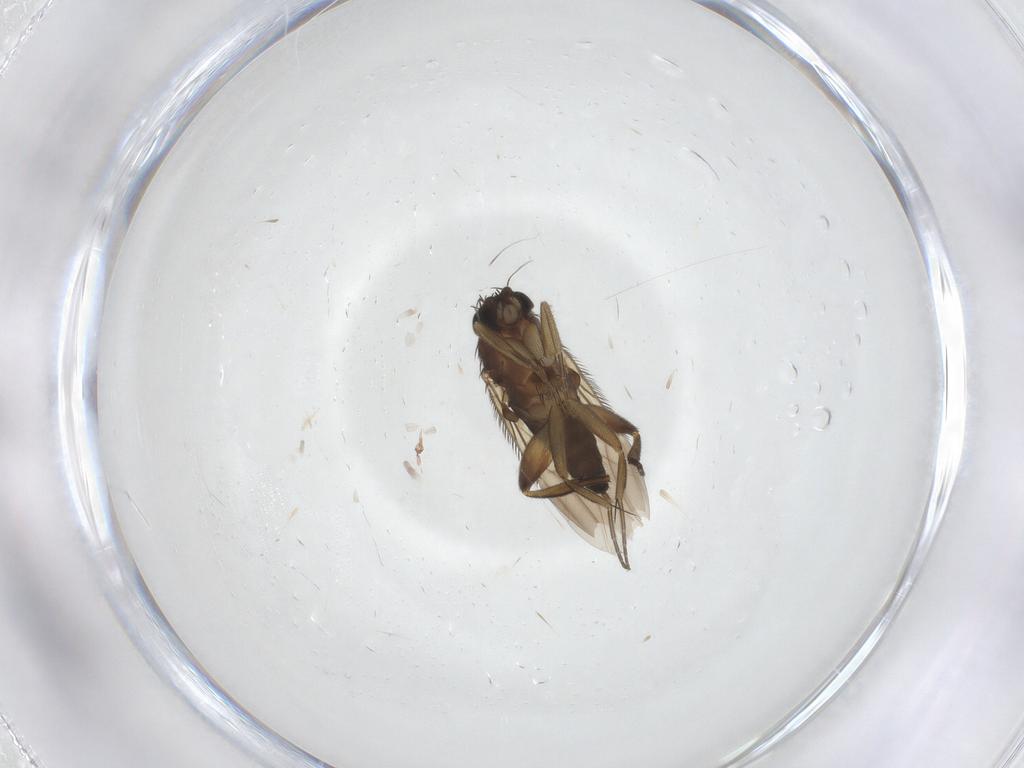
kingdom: Animalia
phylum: Arthropoda
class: Insecta
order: Diptera
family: Phoridae
